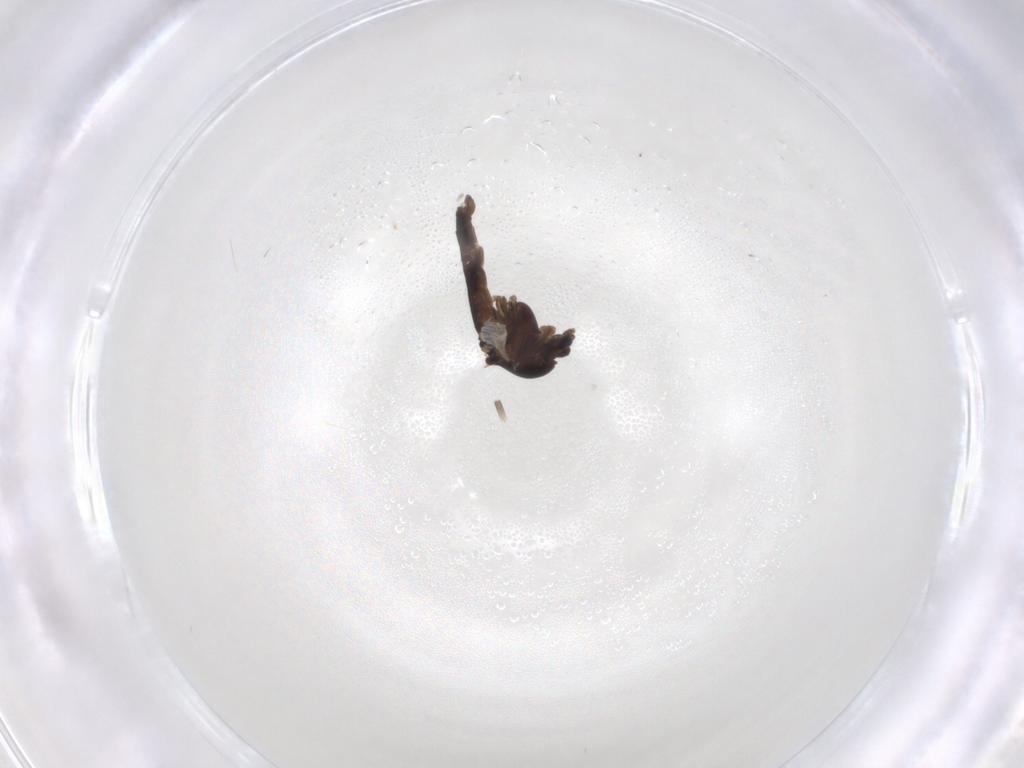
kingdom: Animalia
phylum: Arthropoda
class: Insecta
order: Diptera
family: Chironomidae
